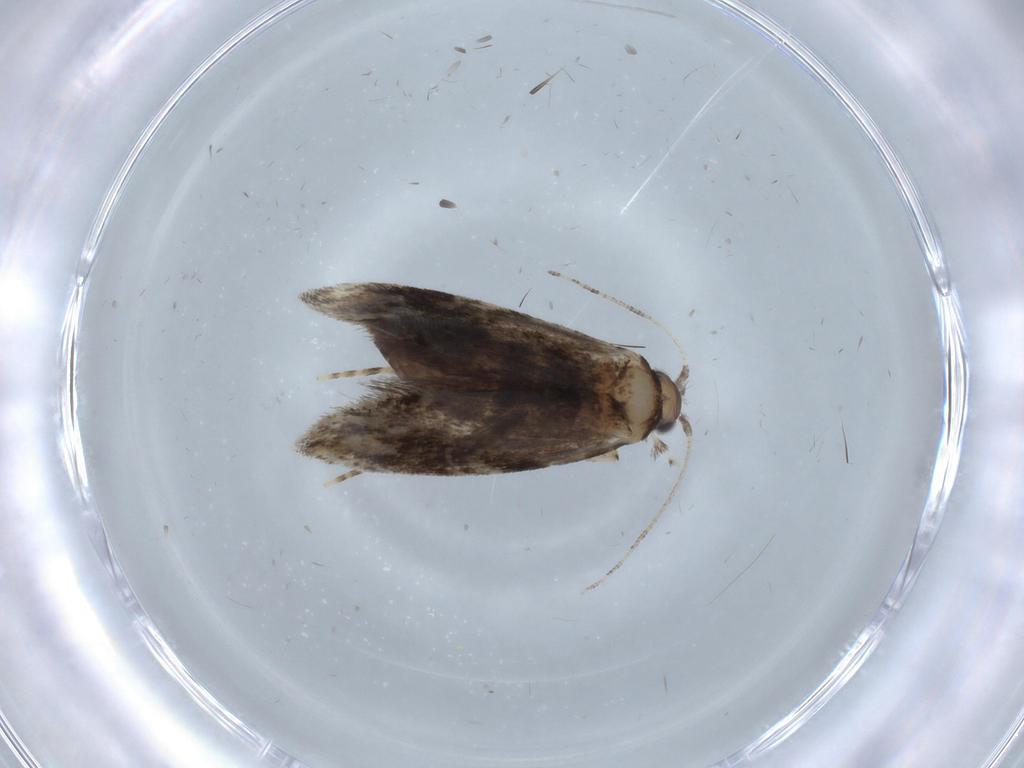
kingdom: Animalia
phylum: Arthropoda
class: Insecta
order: Lepidoptera
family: Tineidae
